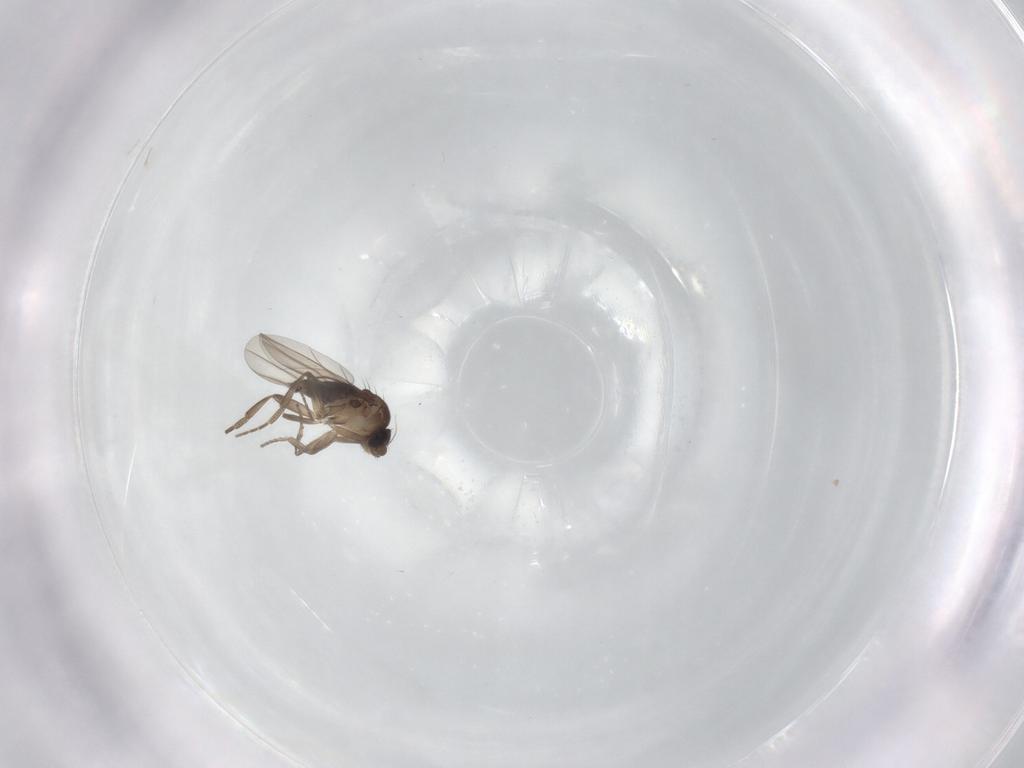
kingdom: Animalia
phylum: Arthropoda
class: Insecta
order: Diptera
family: Phoridae
